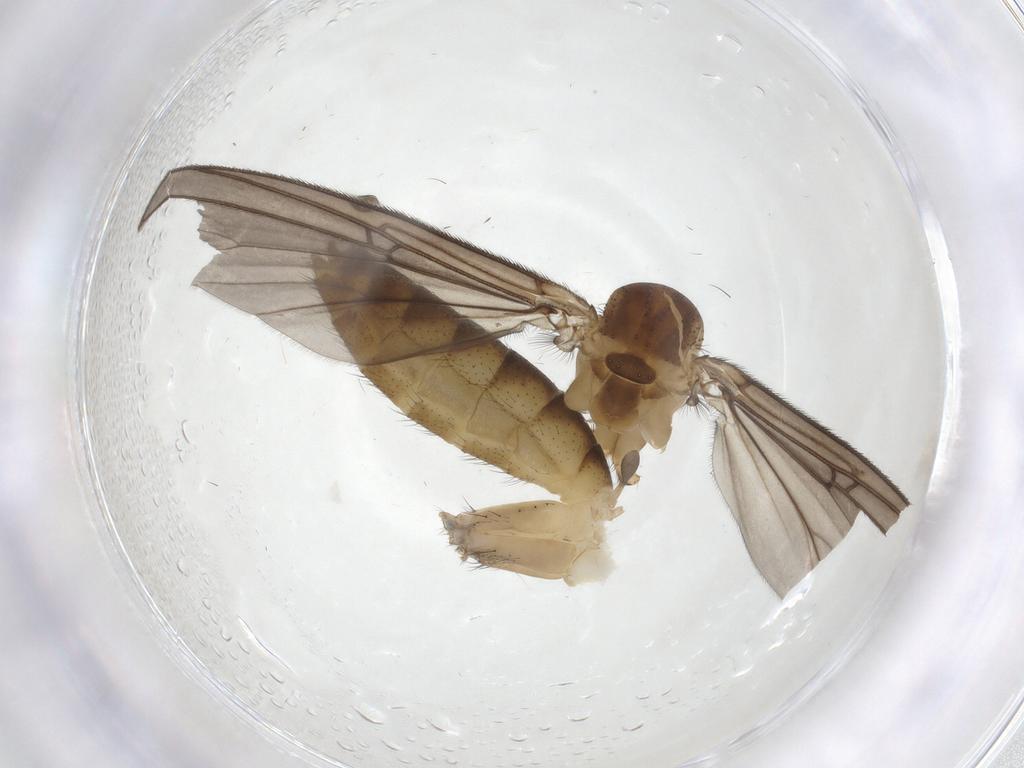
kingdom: Animalia
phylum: Arthropoda
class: Insecta
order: Diptera
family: Mycetophilidae
